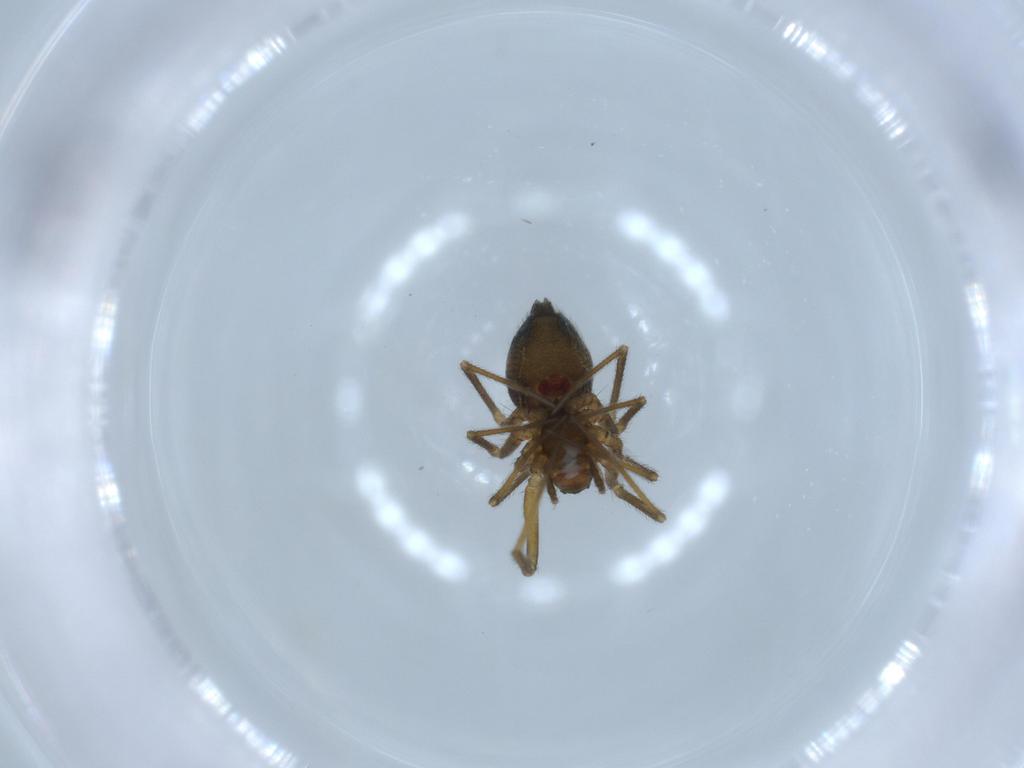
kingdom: Animalia
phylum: Arthropoda
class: Arachnida
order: Araneae
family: Linyphiidae
